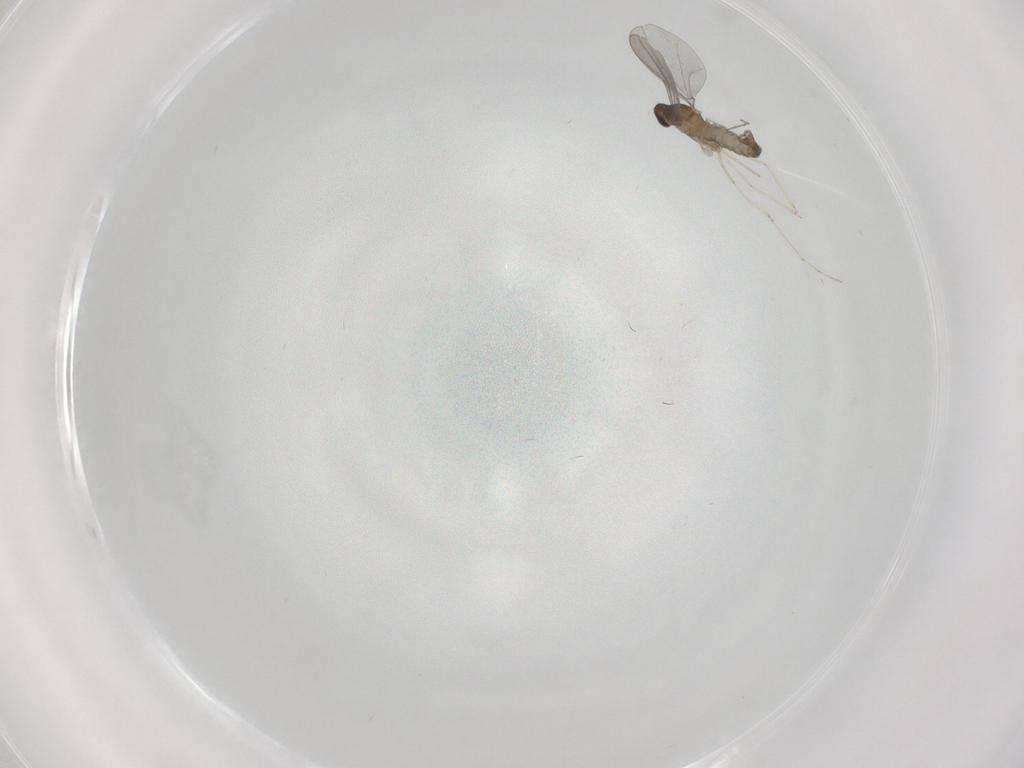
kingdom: Animalia
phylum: Arthropoda
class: Insecta
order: Diptera
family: Cecidomyiidae
